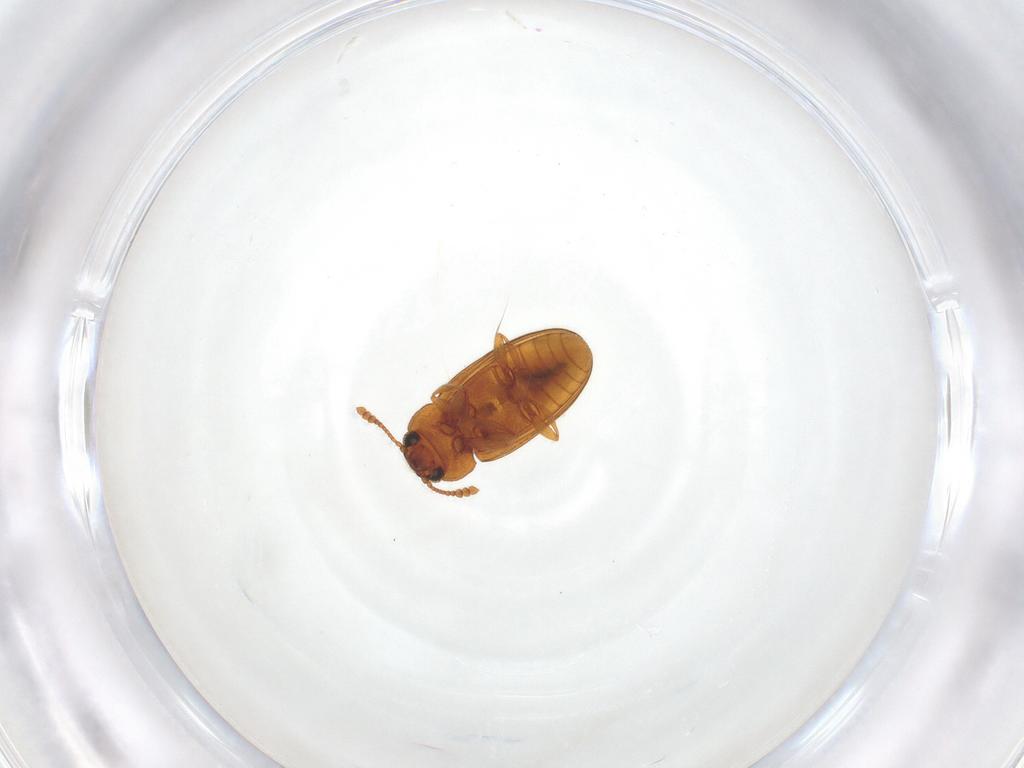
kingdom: Animalia
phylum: Arthropoda
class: Insecta
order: Coleoptera
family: Erotylidae
